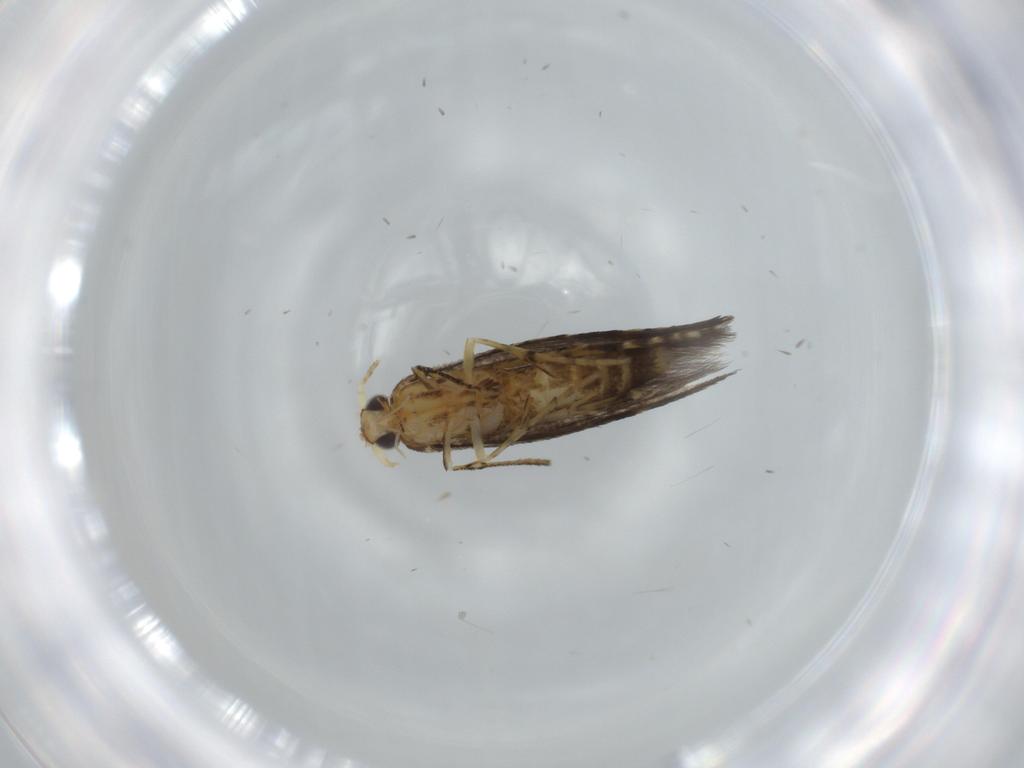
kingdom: Animalia
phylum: Arthropoda
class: Insecta
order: Lepidoptera
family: Argyresthiidae
